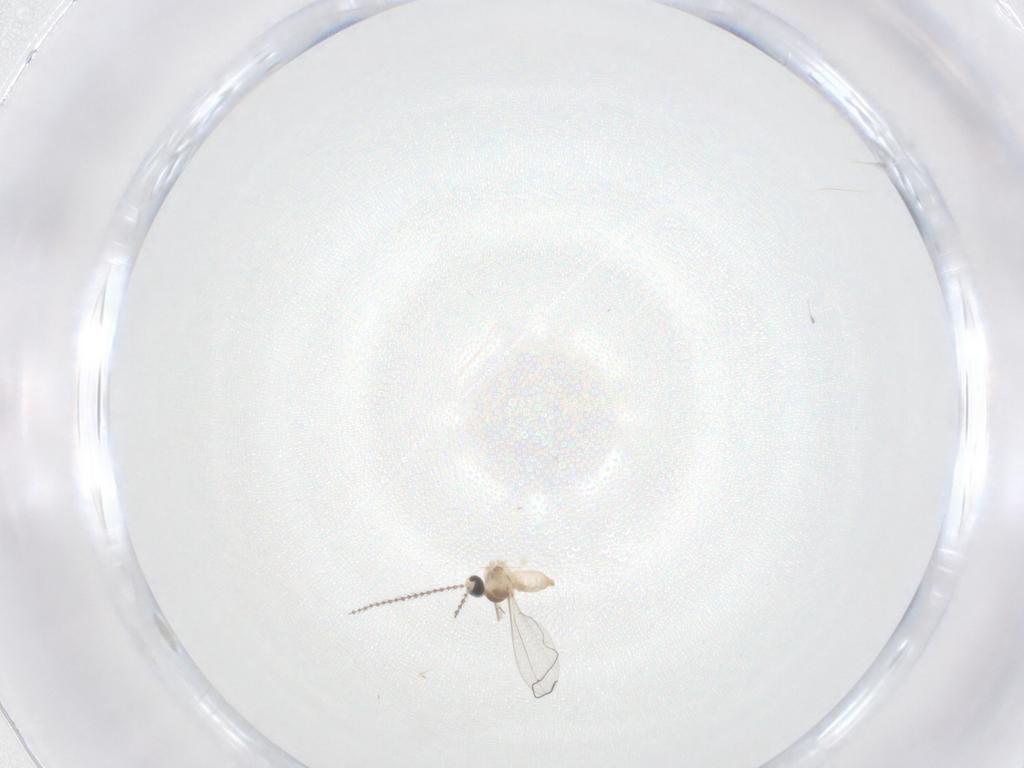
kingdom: Animalia
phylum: Arthropoda
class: Insecta
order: Diptera
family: Cecidomyiidae
